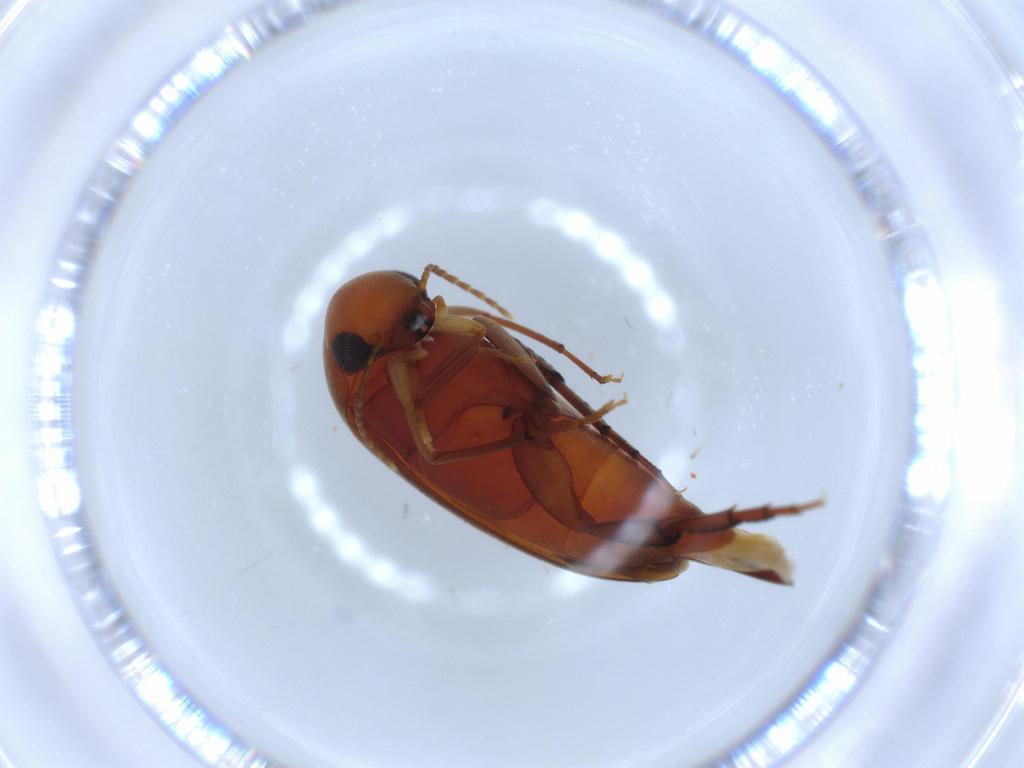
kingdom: Animalia
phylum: Arthropoda
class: Insecta
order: Coleoptera
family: Mordellidae
